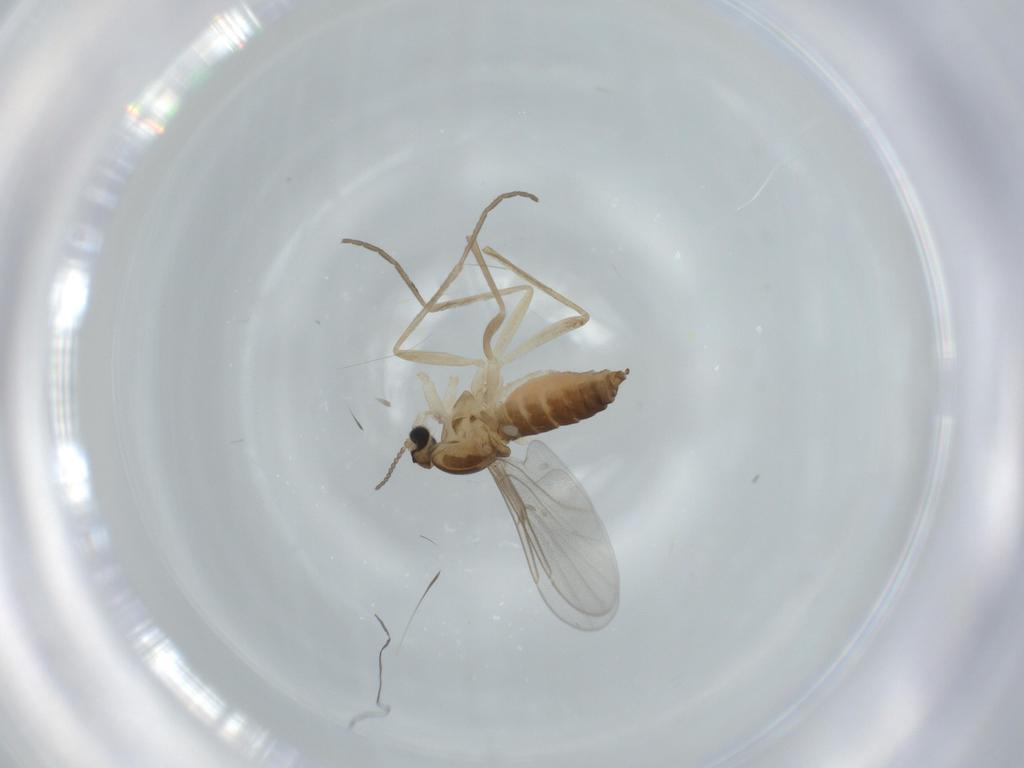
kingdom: Animalia
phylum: Arthropoda
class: Insecta
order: Diptera
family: Cecidomyiidae
